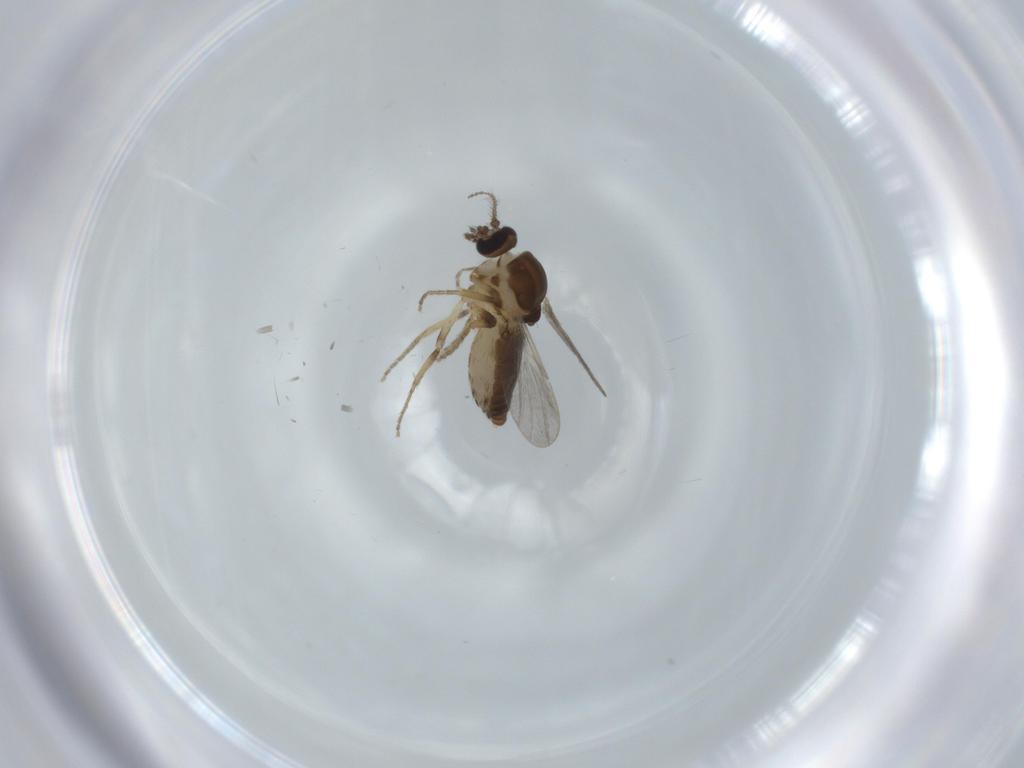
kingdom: Animalia
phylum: Arthropoda
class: Insecta
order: Diptera
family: Ceratopogonidae
